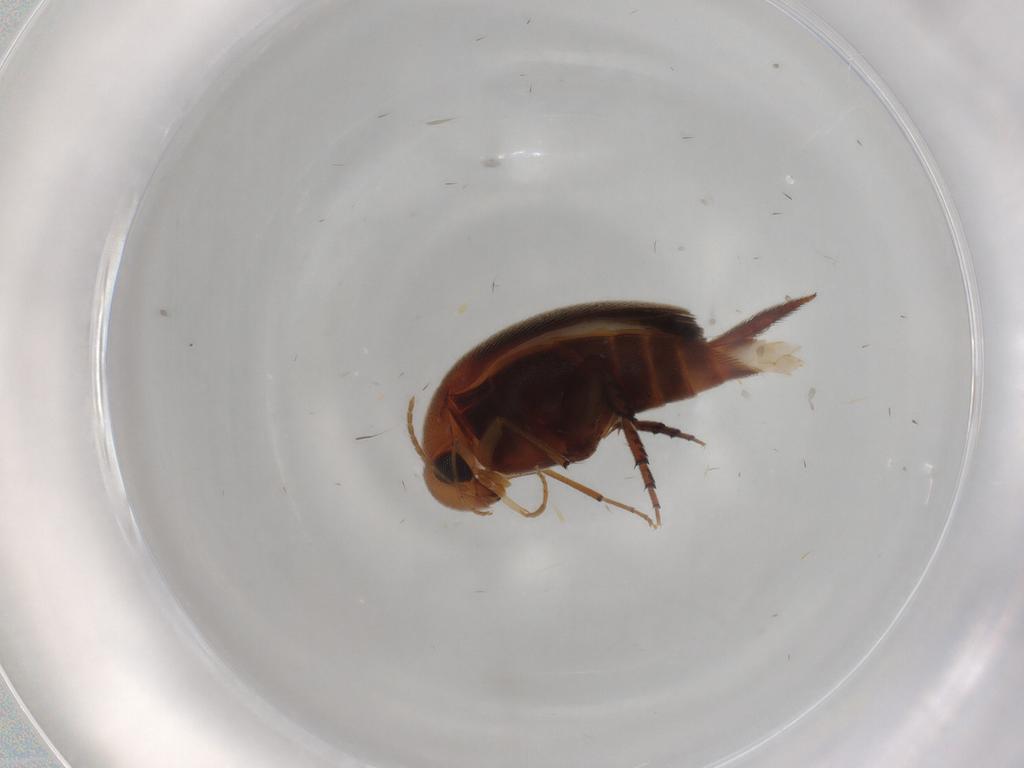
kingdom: Animalia
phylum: Arthropoda
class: Insecta
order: Coleoptera
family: Mordellidae
